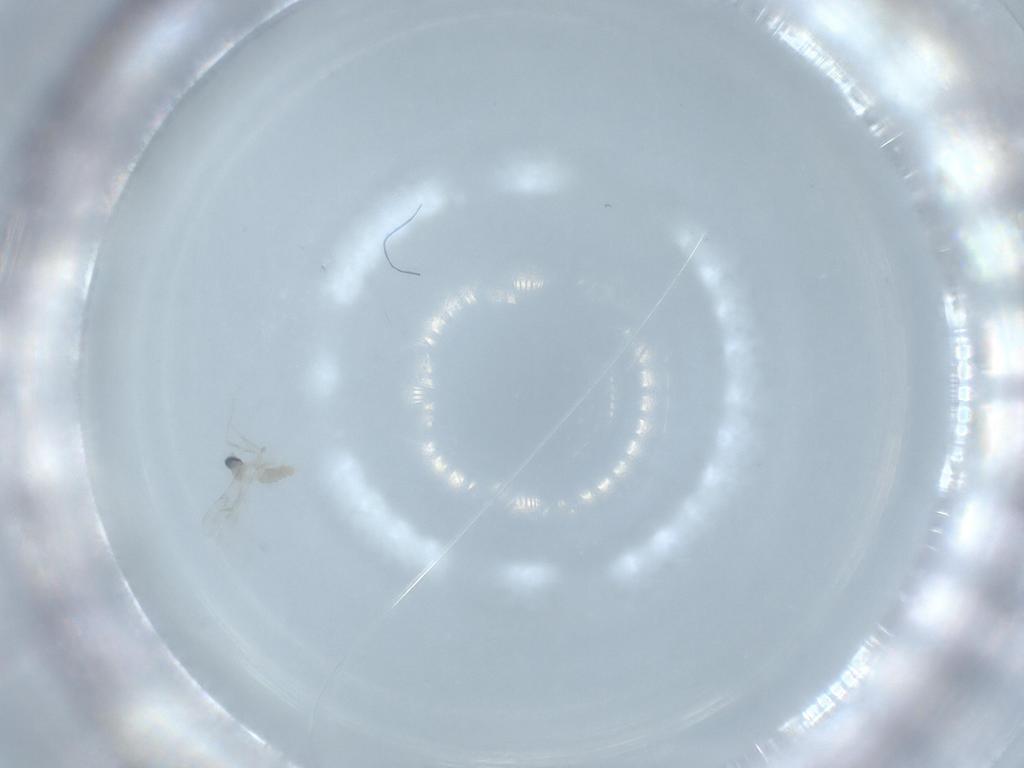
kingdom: Animalia
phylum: Arthropoda
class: Insecta
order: Diptera
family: Cecidomyiidae
